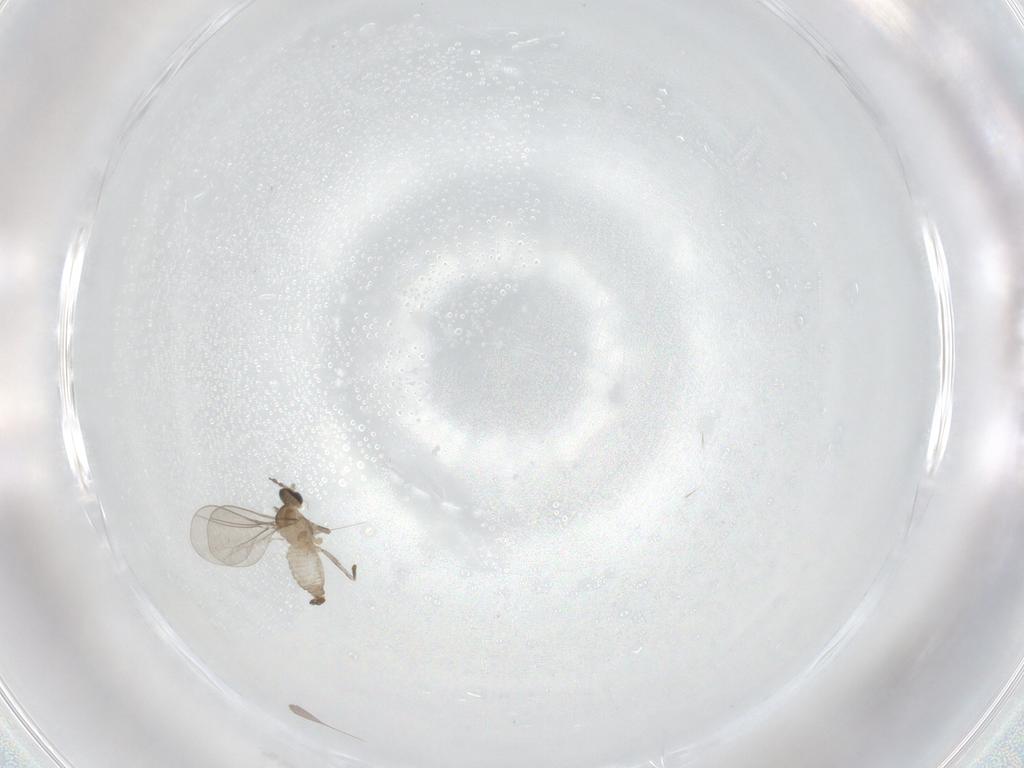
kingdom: Animalia
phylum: Arthropoda
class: Insecta
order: Diptera
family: Cecidomyiidae
